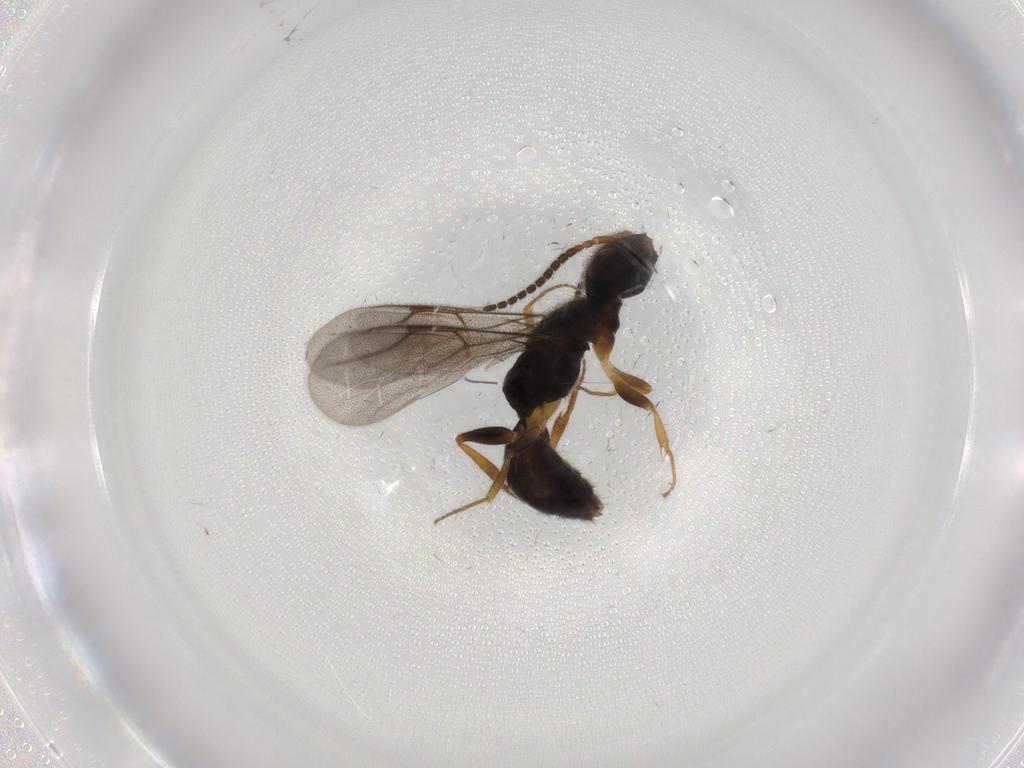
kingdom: Animalia
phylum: Arthropoda
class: Insecta
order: Hymenoptera
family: Bethylidae
